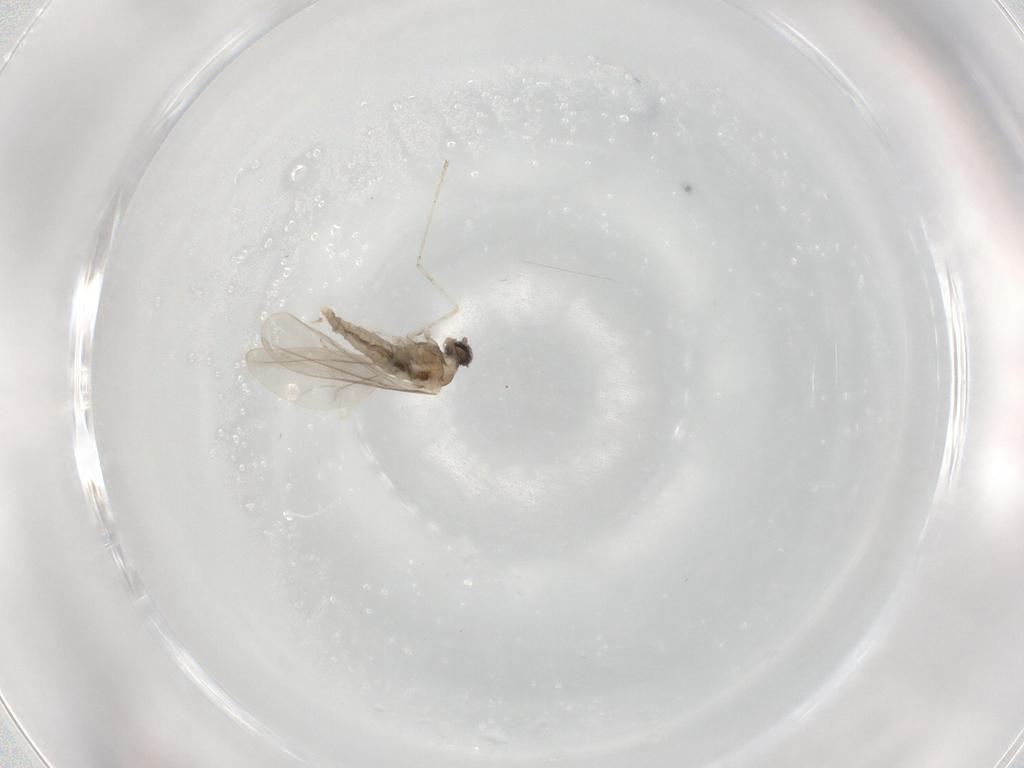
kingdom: Animalia
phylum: Arthropoda
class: Insecta
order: Diptera
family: Cecidomyiidae
